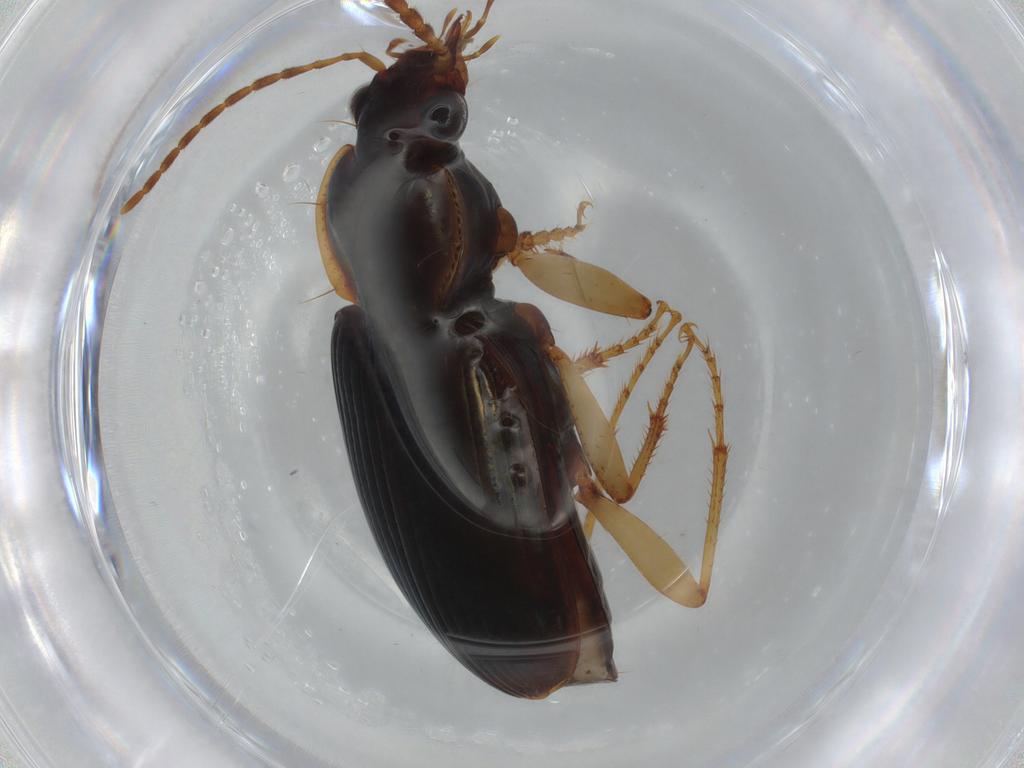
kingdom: Animalia
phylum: Arthropoda
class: Insecta
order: Coleoptera
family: Carabidae
